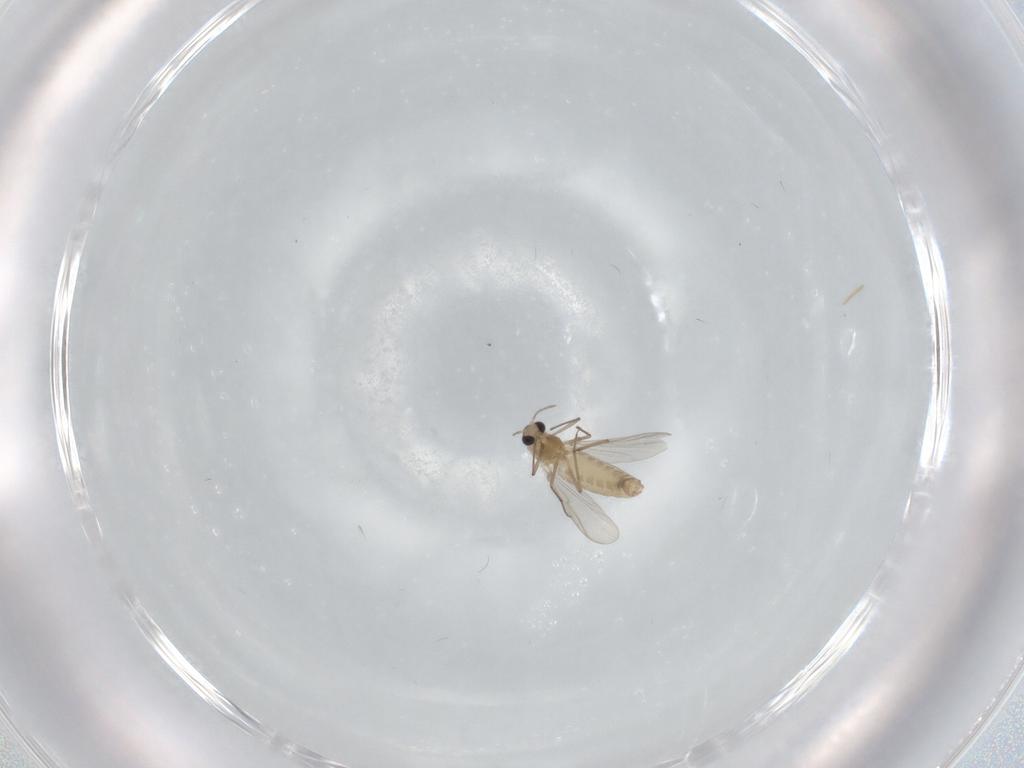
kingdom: Animalia
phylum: Arthropoda
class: Insecta
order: Diptera
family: Chironomidae
